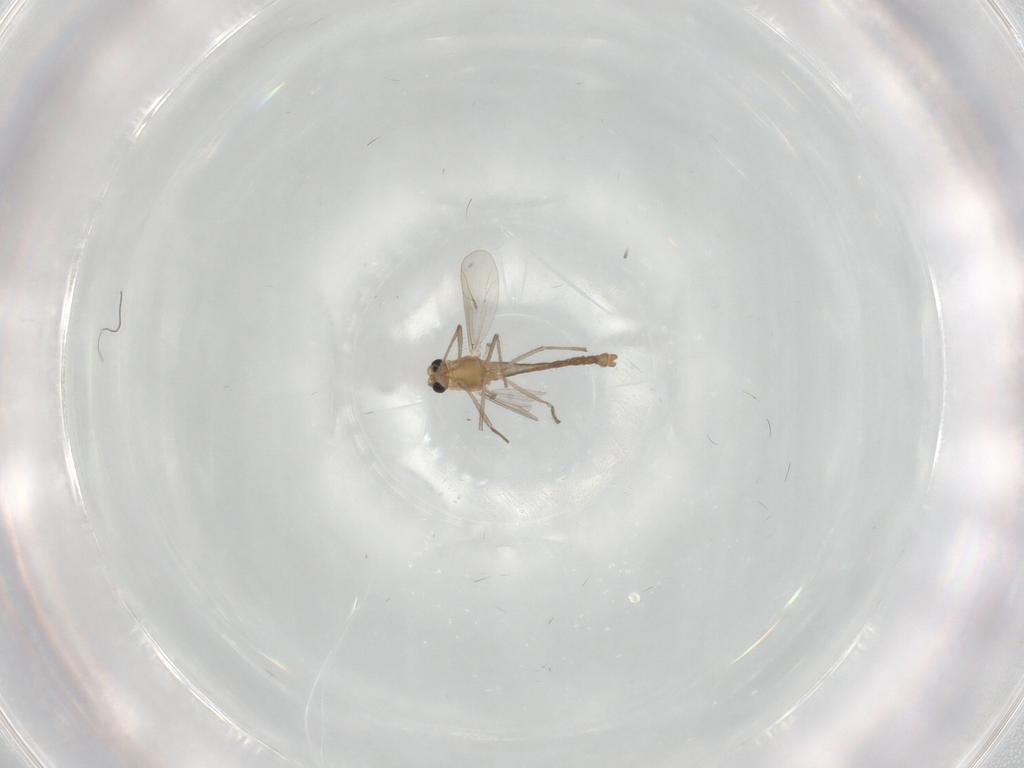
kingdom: Animalia
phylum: Arthropoda
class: Insecta
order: Diptera
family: Chironomidae
